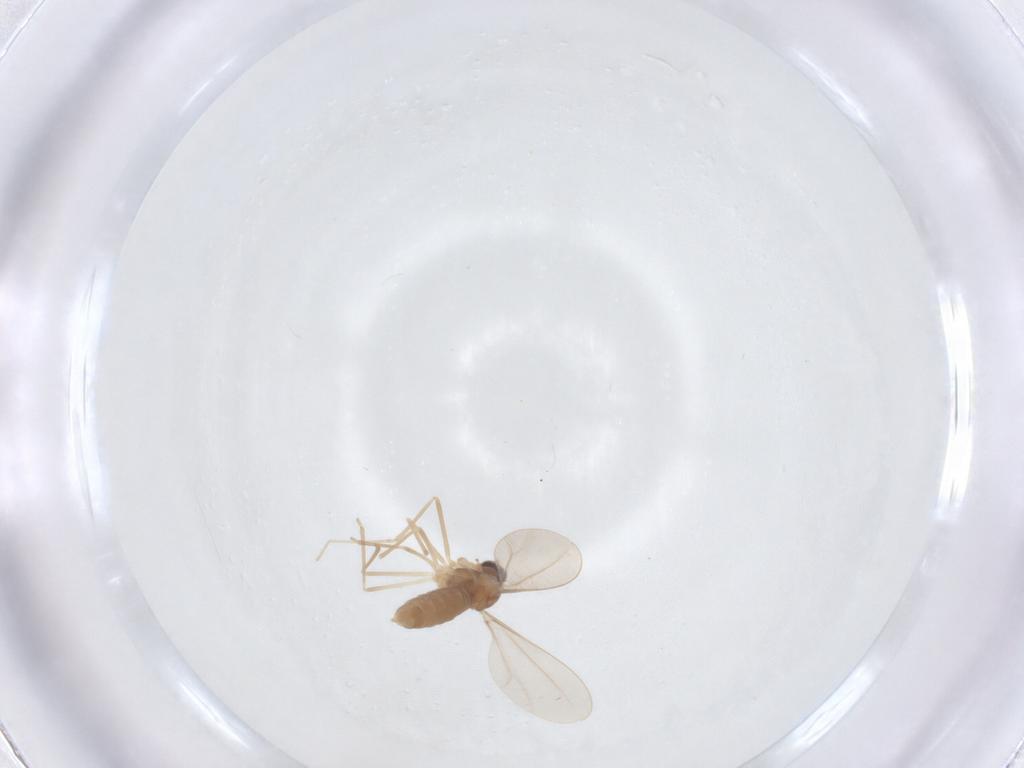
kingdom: Animalia
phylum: Arthropoda
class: Insecta
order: Diptera
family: Cecidomyiidae
